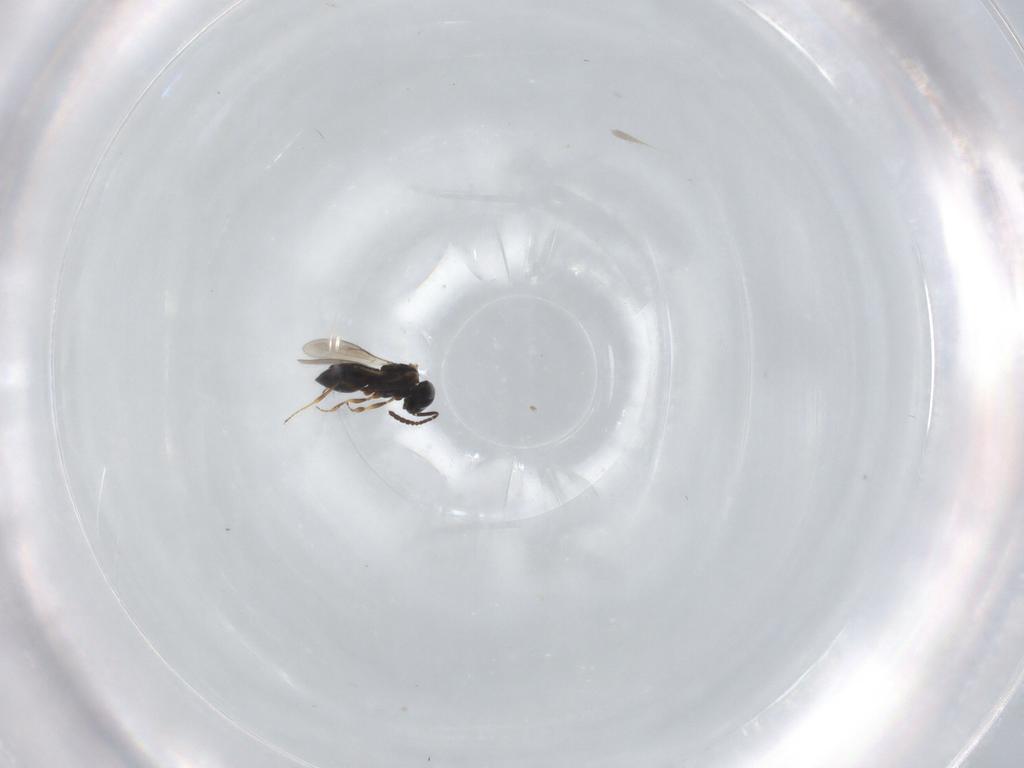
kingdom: Animalia
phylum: Arthropoda
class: Insecta
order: Hymenoptera
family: Scelionidae
